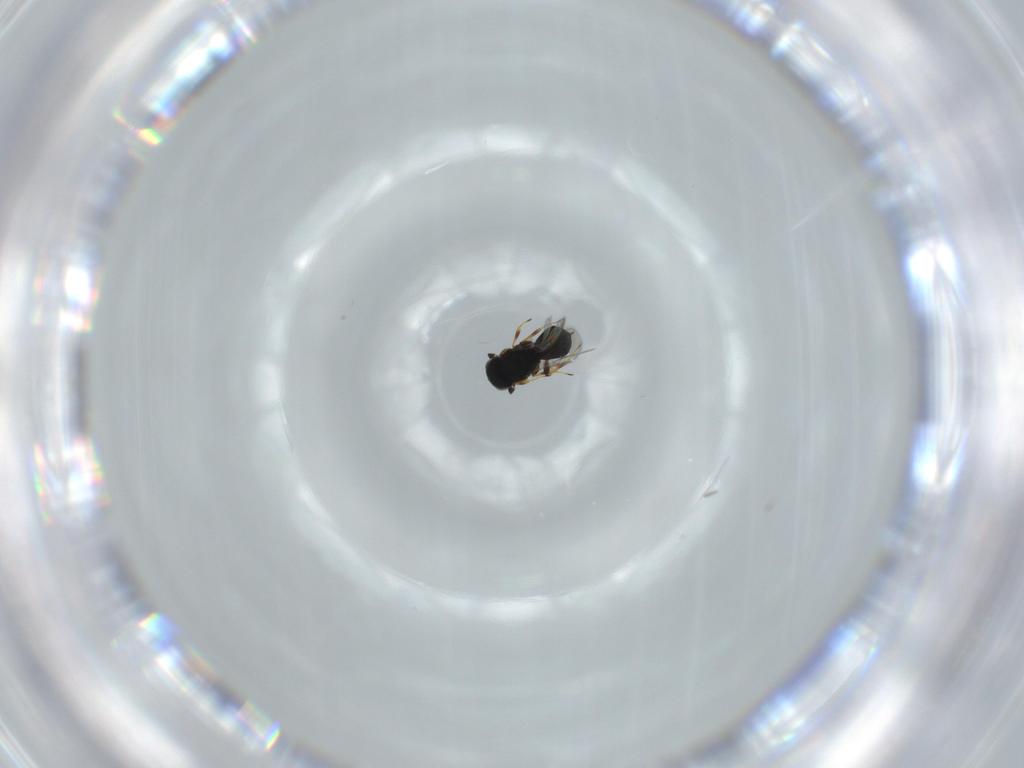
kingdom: Animalia
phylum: Arthropoda
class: Insecta
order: Hymenoptera
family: Scelionidae
